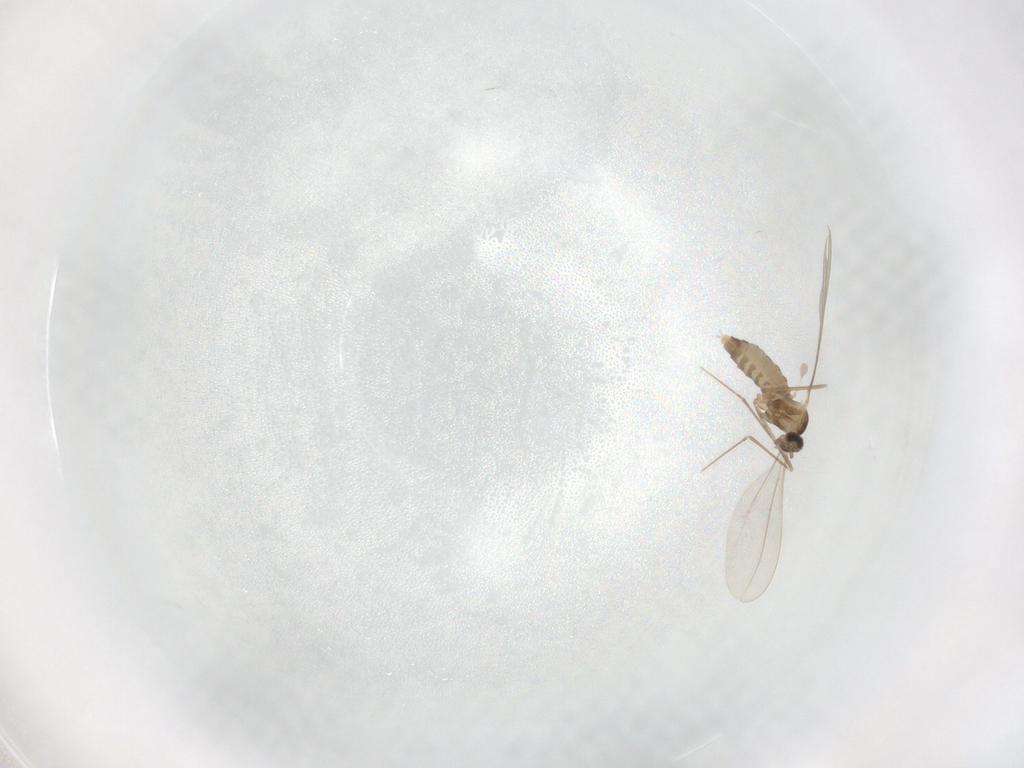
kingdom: Animalia
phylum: Arthropoda
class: Insecta
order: Diptera
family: Cecidomyiidae
